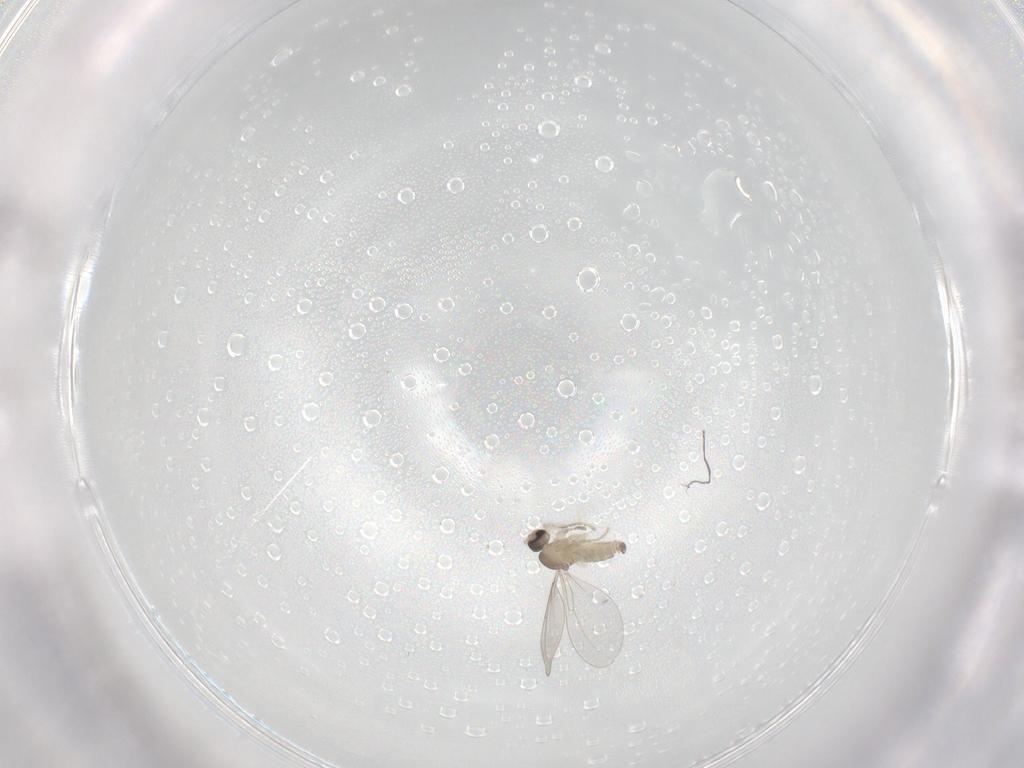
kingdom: Animalia
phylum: Arthropoda
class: Insecta
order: Diptera
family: Cecidomyiidae
